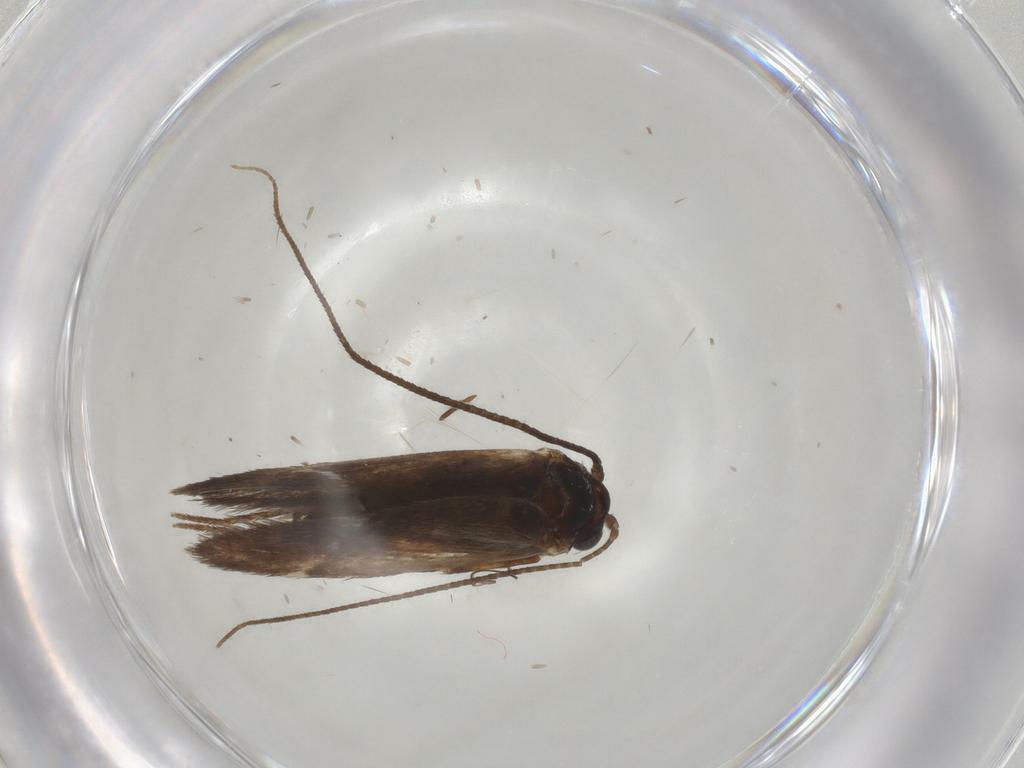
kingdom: Animalia
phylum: Arthropoda
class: Insecta
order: Lepidoptera
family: Adelidae
